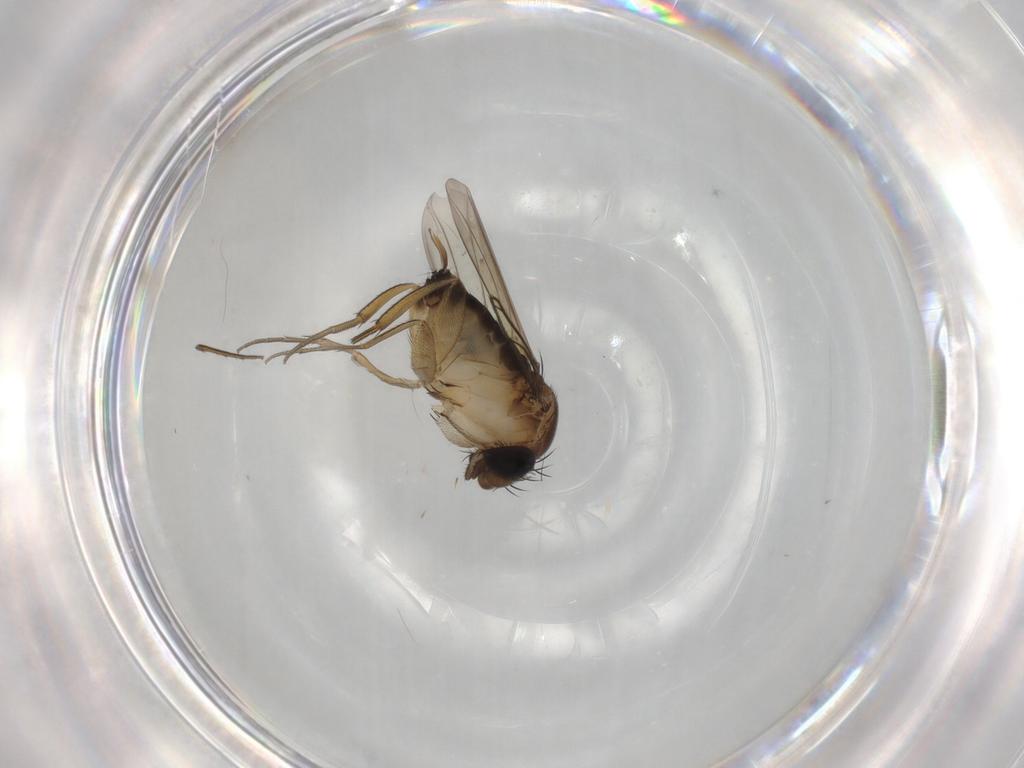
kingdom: Animalia
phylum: Arthropoda
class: Insecta
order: Diptera
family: Phoridae
